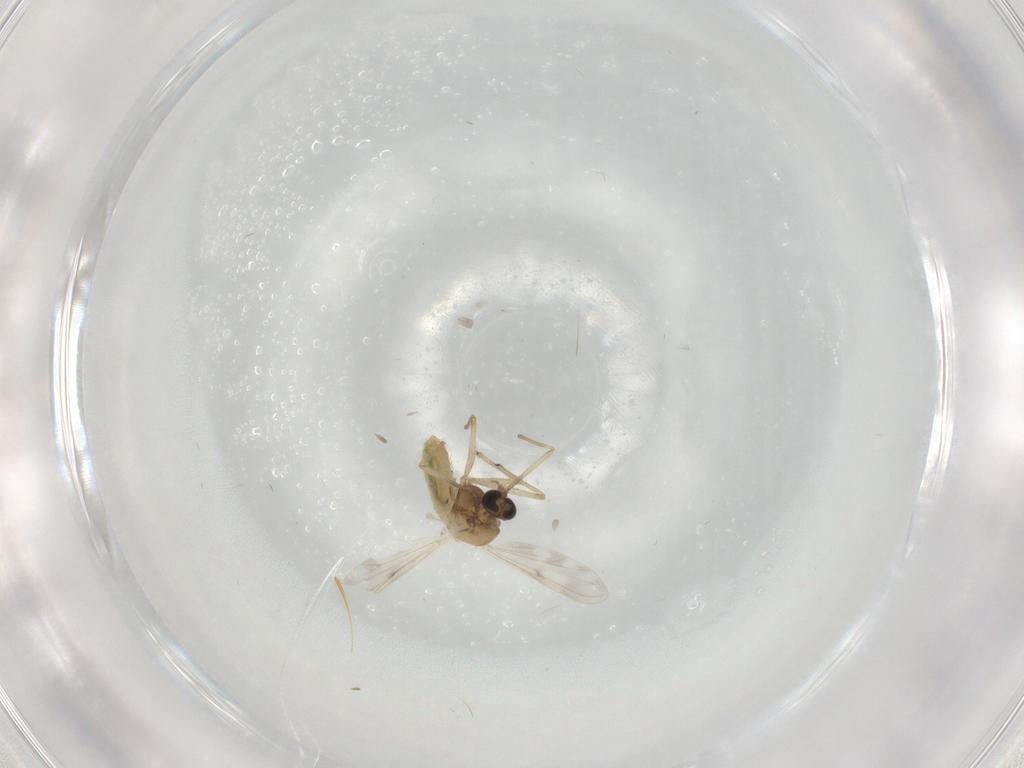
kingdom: Animalia
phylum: Arthropoda
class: Insecta
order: Diptera
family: Chironomidae
